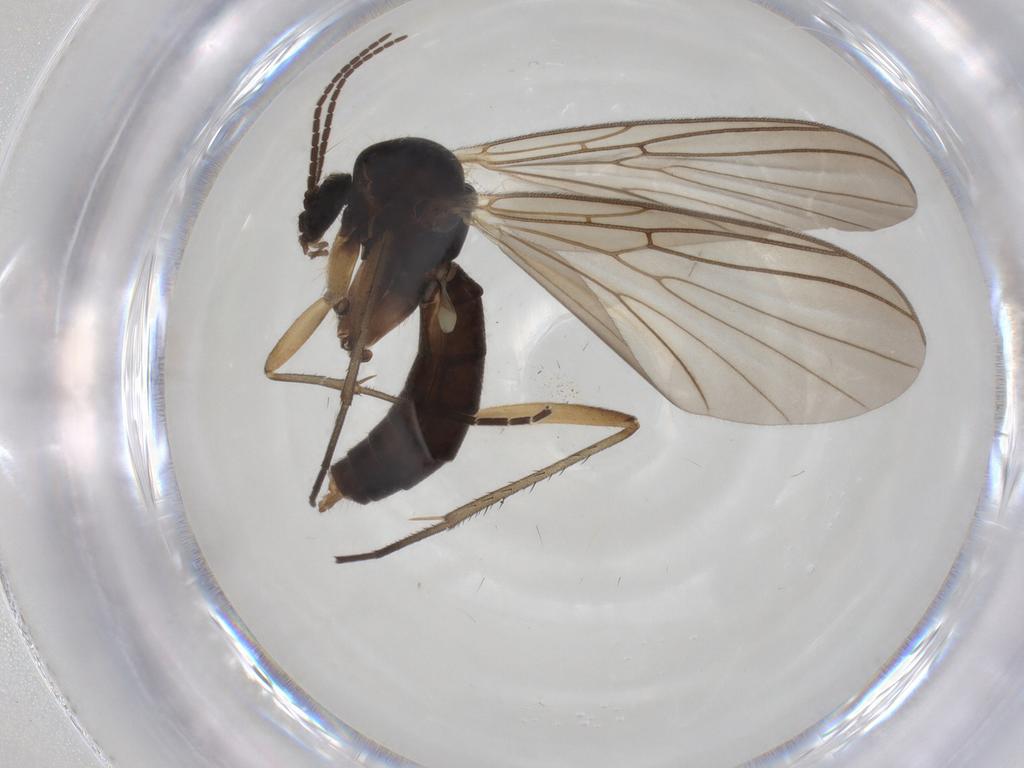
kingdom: Animalia
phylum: Arthropoda
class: Insecta
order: Diptera
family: Mycetophilidae
